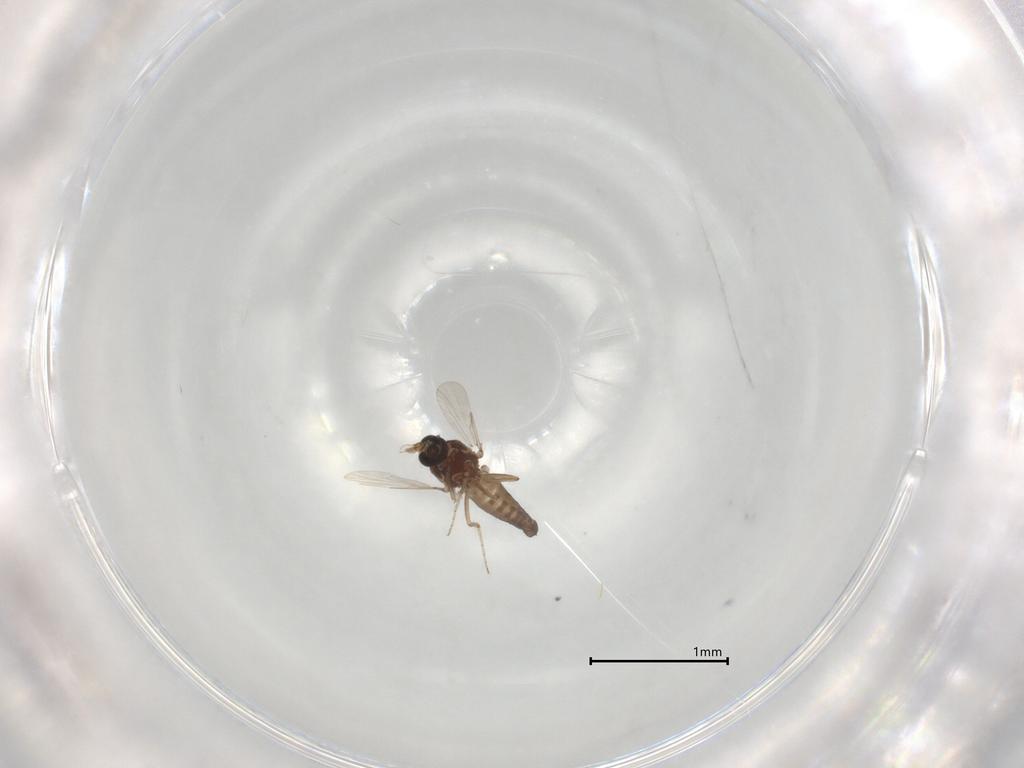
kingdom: Animalia
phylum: Arthropoda
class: Insecta
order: Diptera
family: Ceratopogonidae
